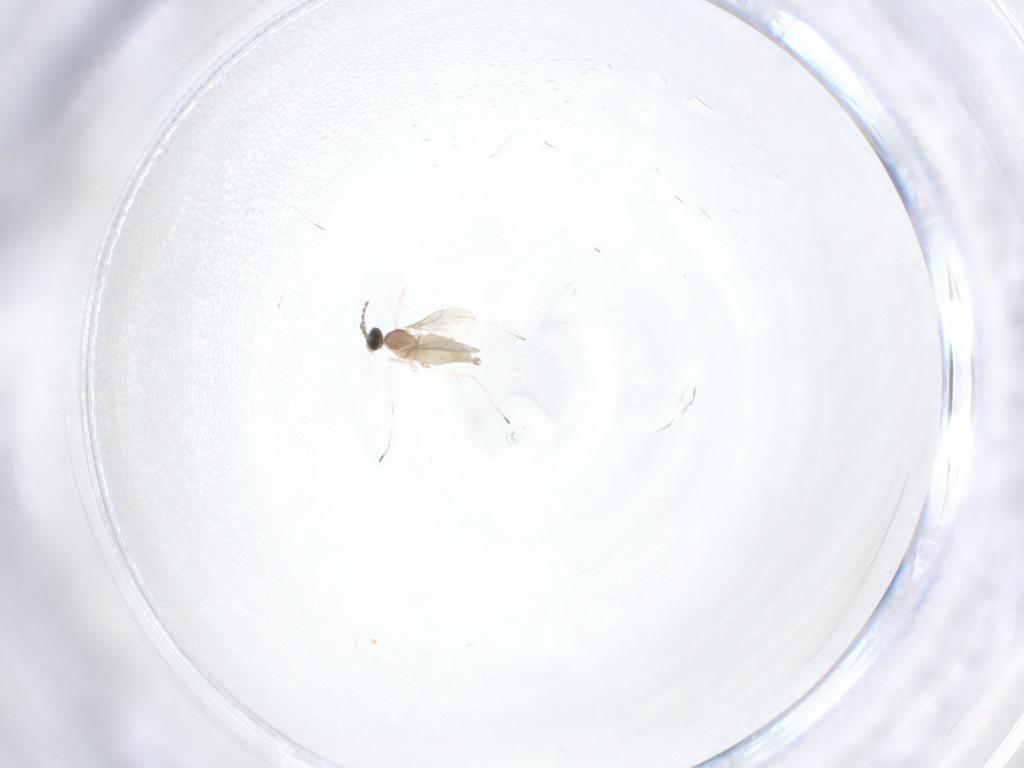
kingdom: Animalia
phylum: Arthropoda
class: Insecta
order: Diptera
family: Cecidomyiidae
